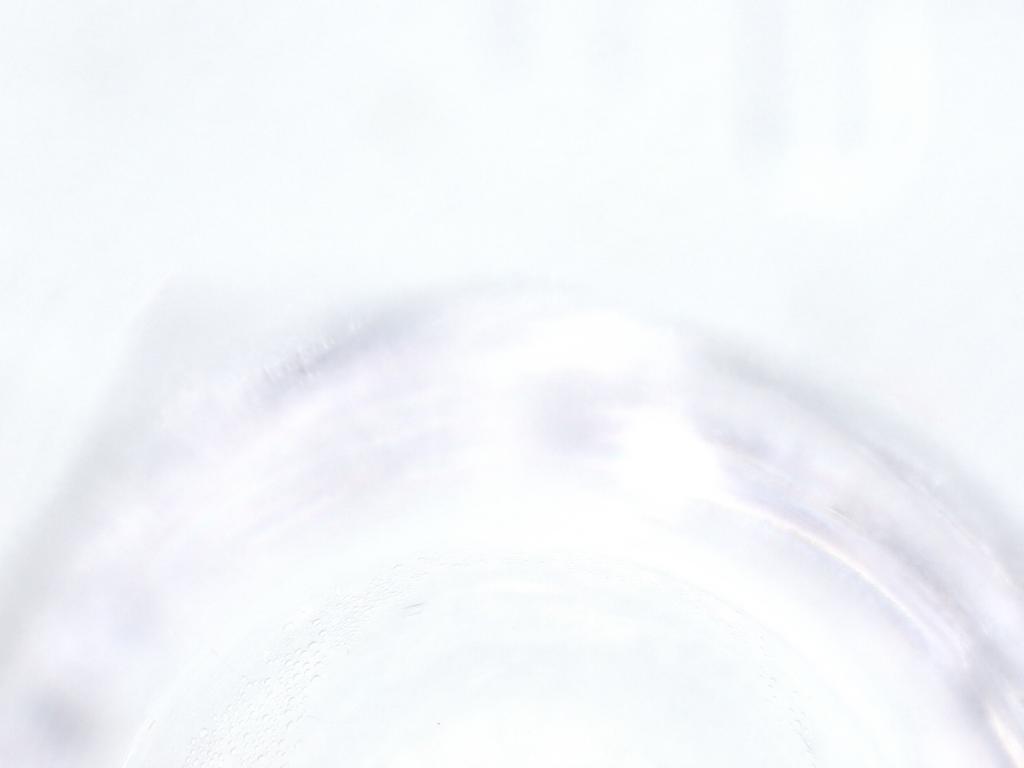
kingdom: Animalia
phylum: Arthropoda
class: Insecta
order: Diptera
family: Psychodidae
